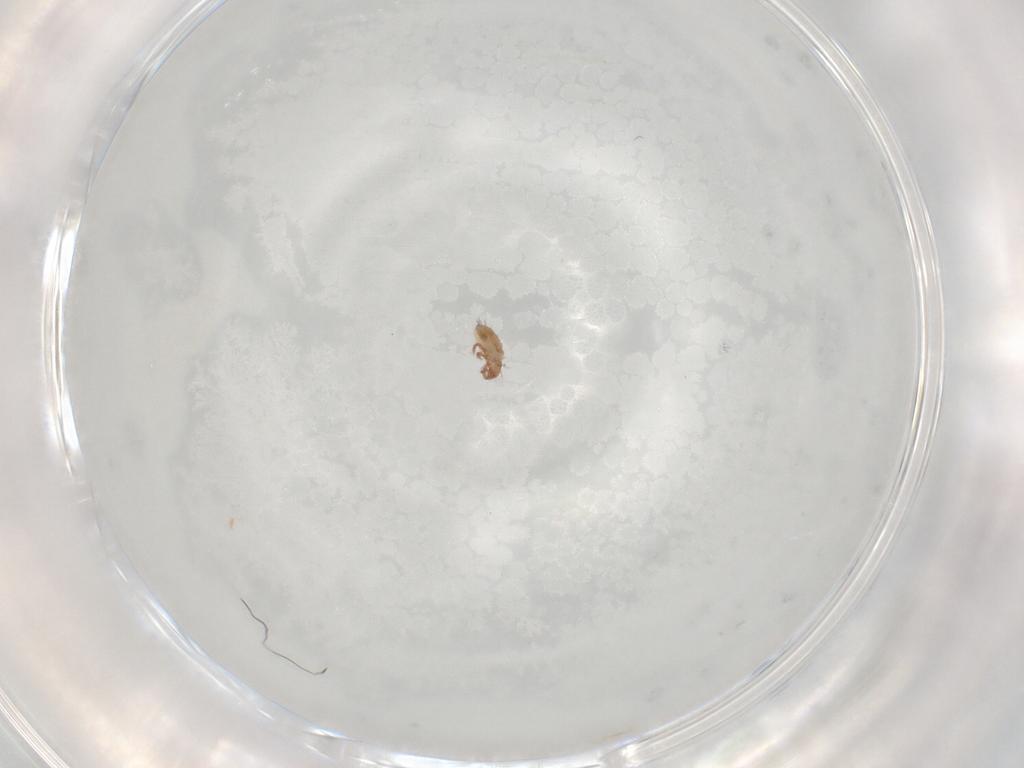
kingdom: Animalia
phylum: Arthropoda
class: Arachnida
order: Sarcoptiformes
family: Ceratozetidae
